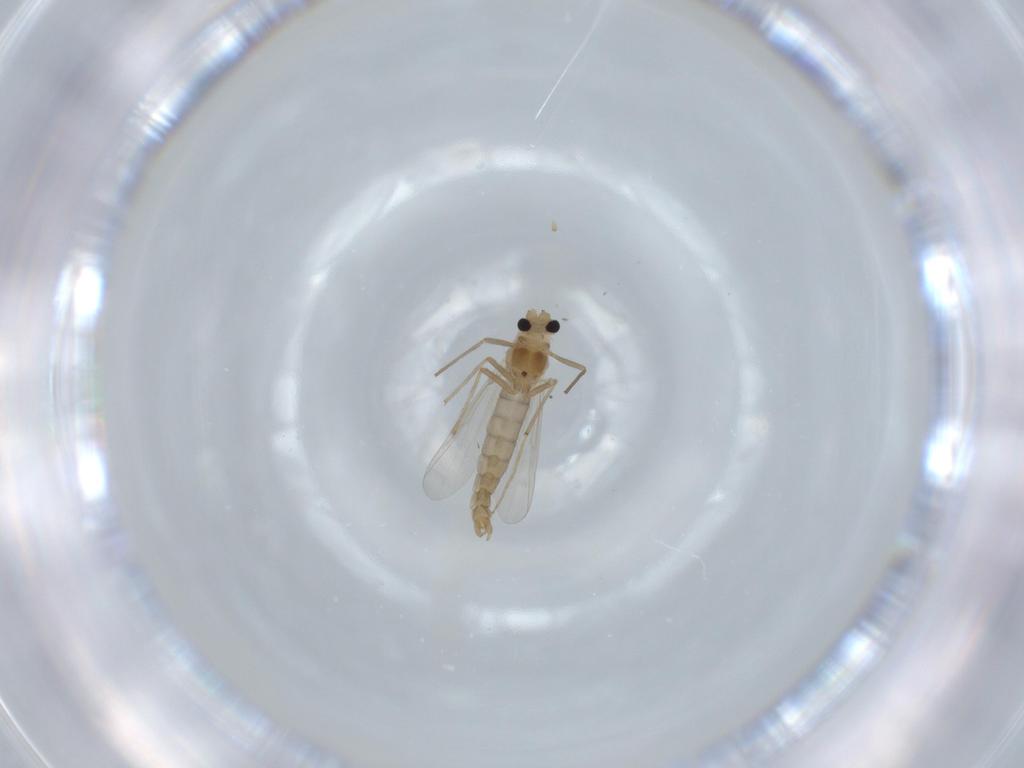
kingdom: Animalia
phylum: Arthropoda
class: Insecta
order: Diptera
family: Chironomidae
